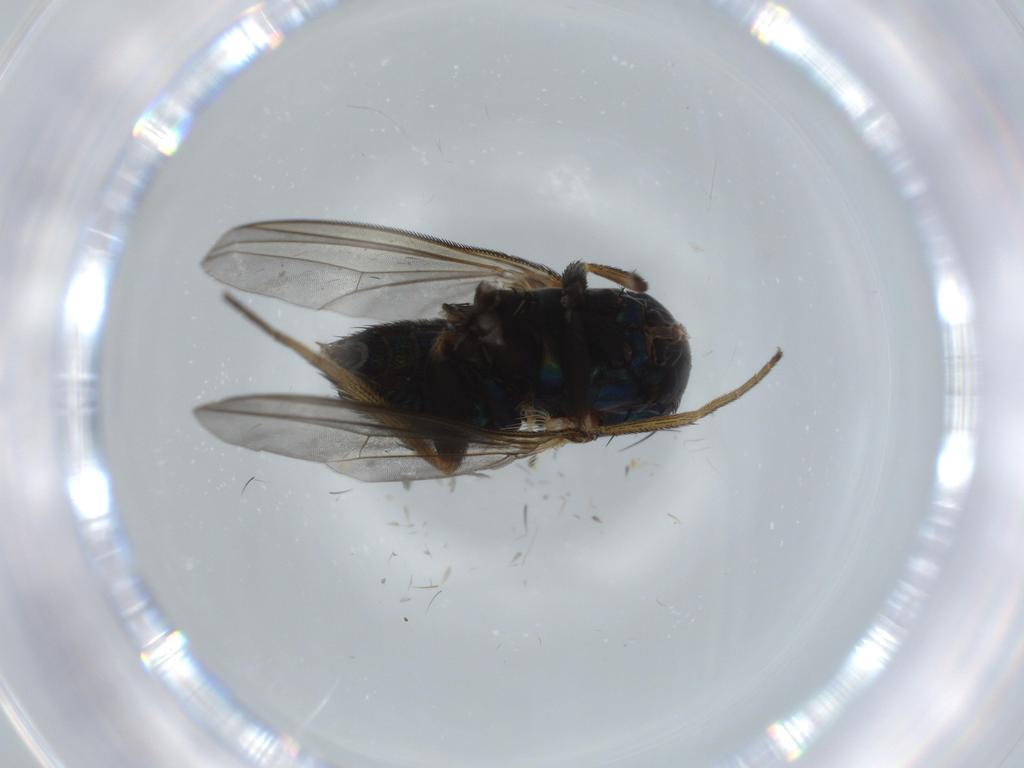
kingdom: Animalia
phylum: Arthropoda
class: Insecta
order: Diptera
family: Dolichopodidae
